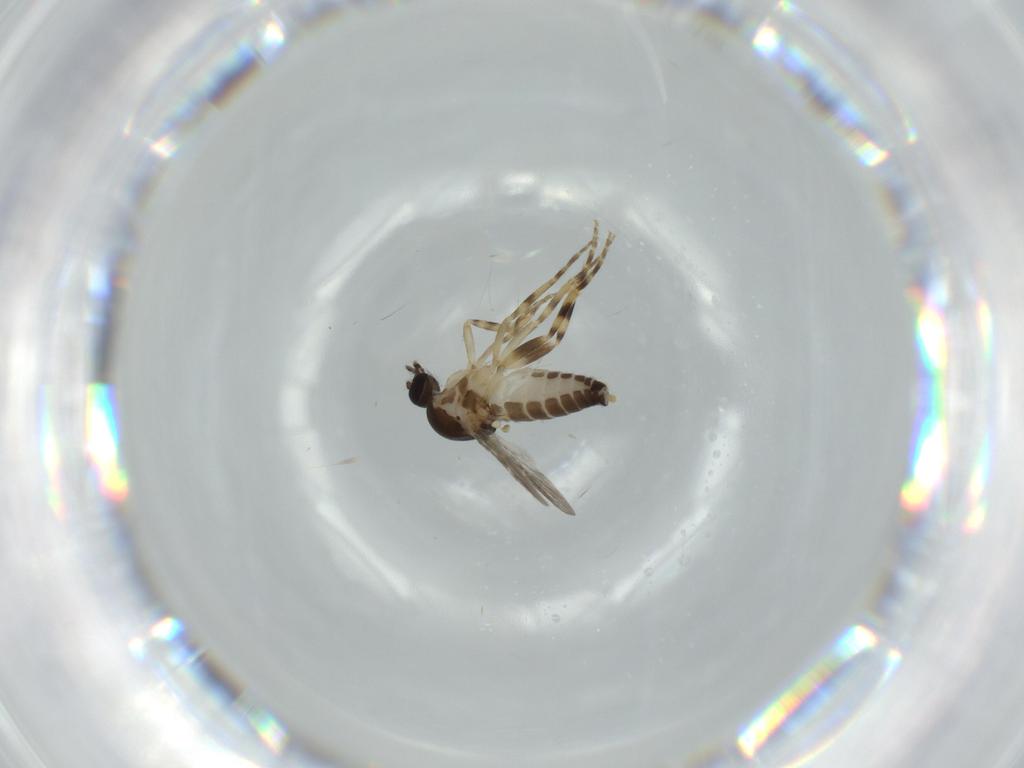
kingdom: Animalia
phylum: Arthropoda
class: Insecta
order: Diptera
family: Ceratopogonidae
